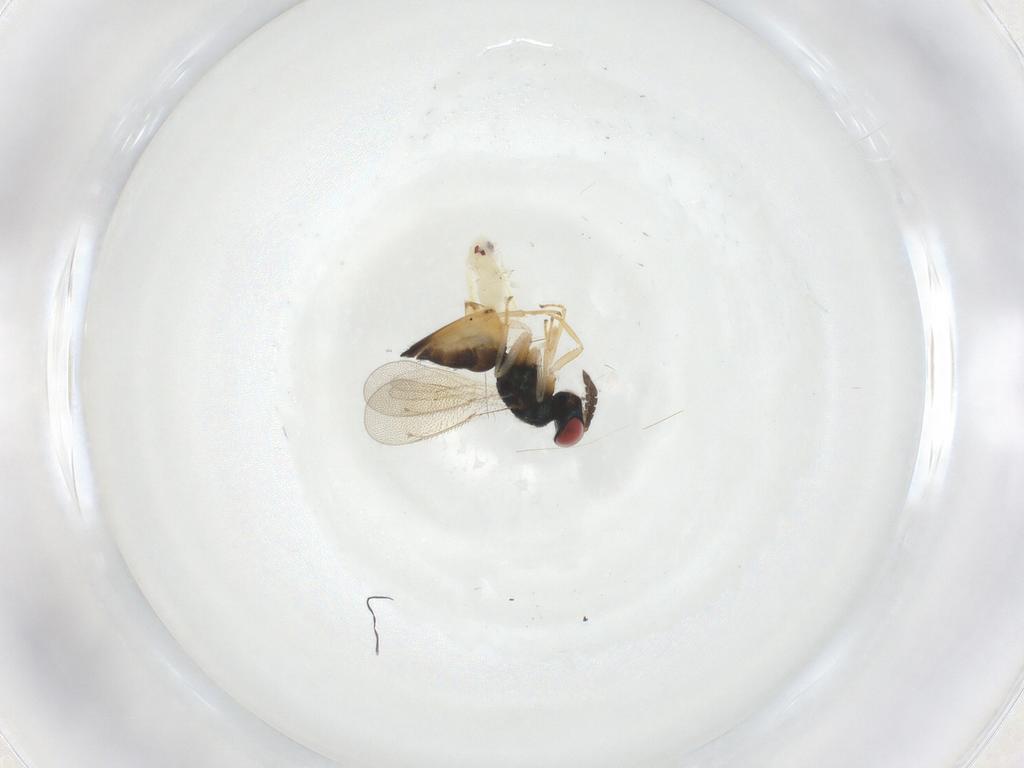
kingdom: Animalia
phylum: Arthropoda
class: Insecta
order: Hymenoptera
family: Eulophidae
